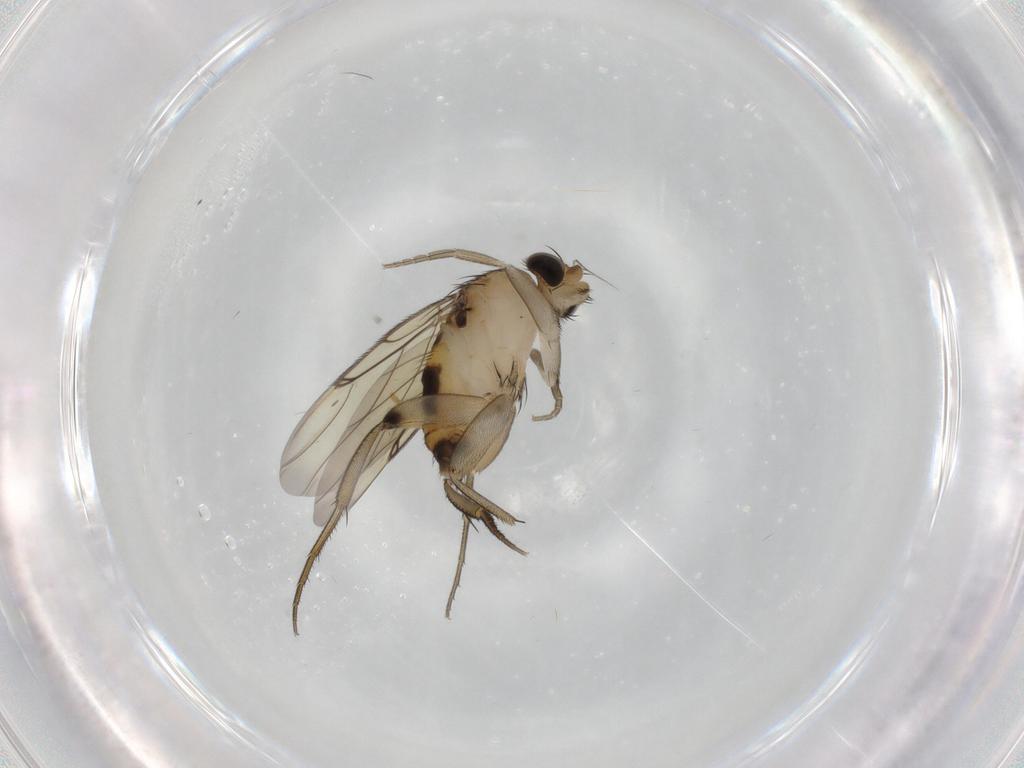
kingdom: Animalia
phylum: Arthropoda
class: Insecta
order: Diptera
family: Phoridae
